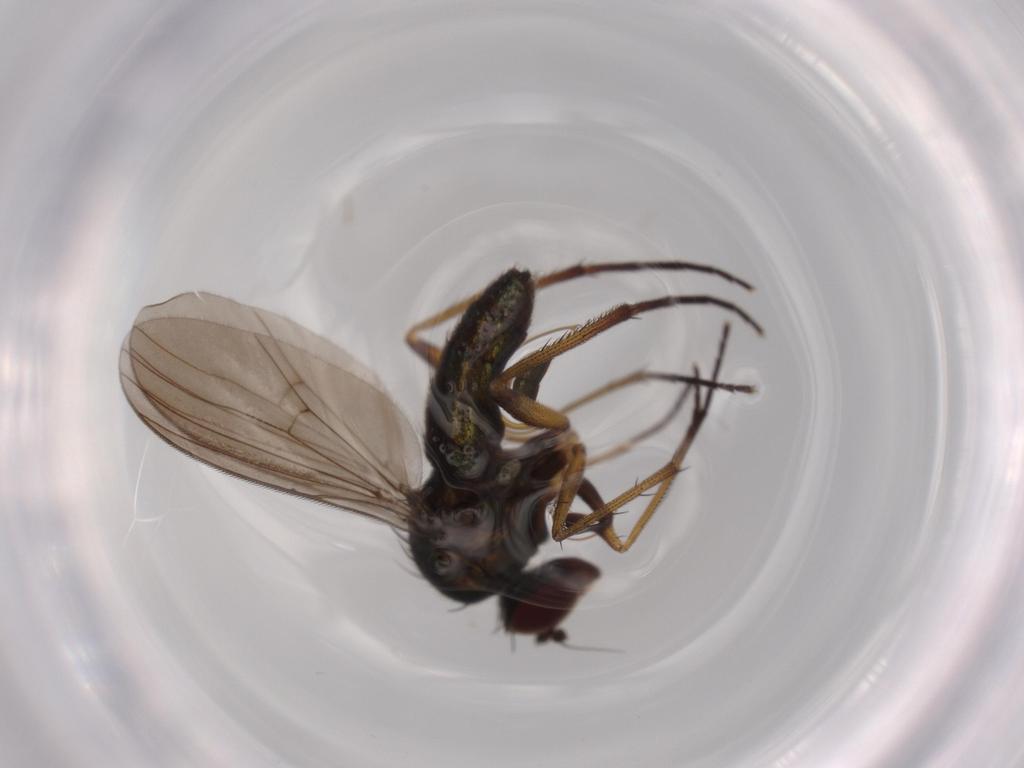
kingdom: Animalia
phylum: Arthropoda
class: Insecta
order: Diptera
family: Dolichopodidae
